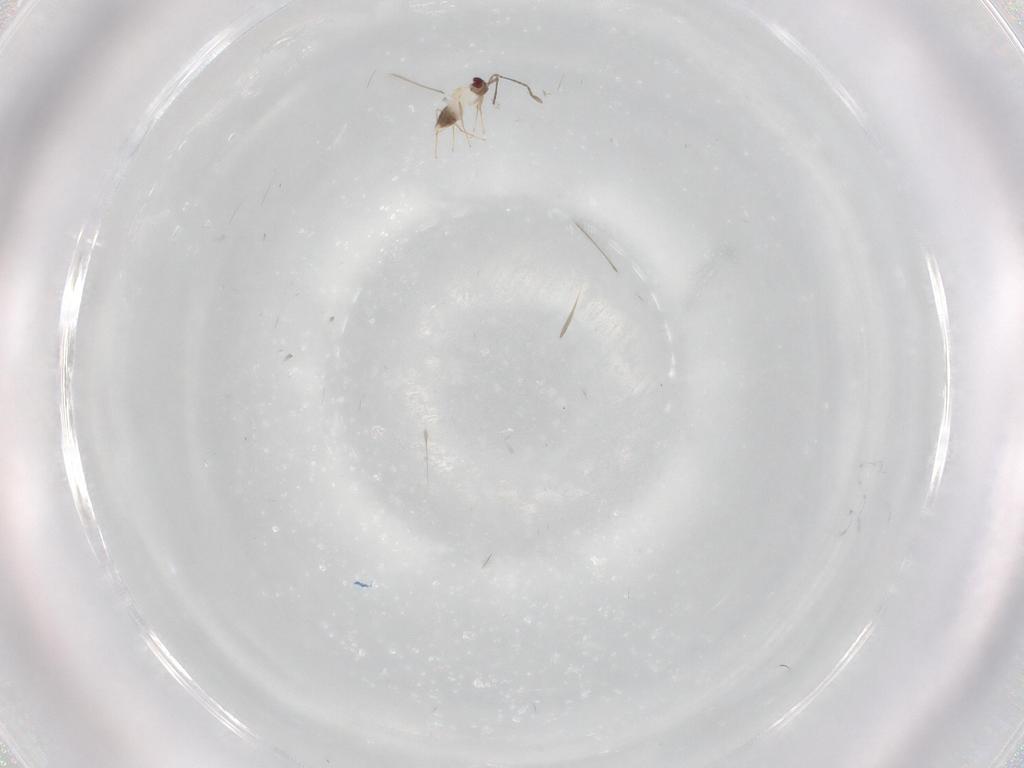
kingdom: Animalia
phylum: Arthropoda
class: Insecta
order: Hymenoptera
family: Mymaridae
